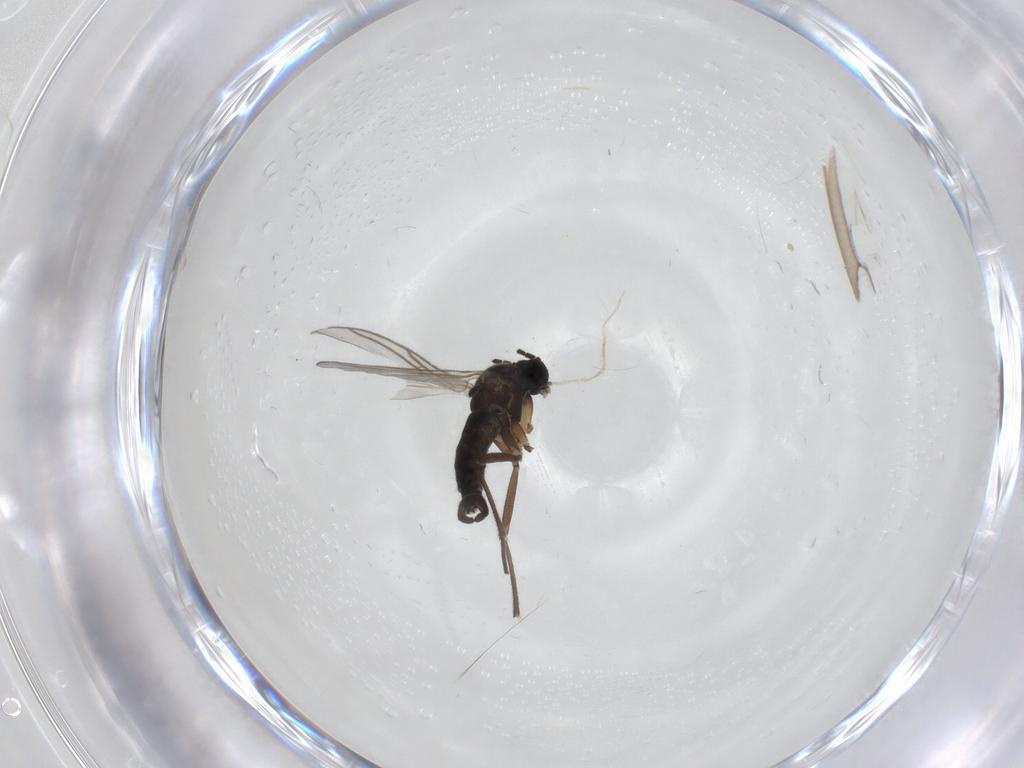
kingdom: Animalia
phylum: Arthropoda
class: Insecta
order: Diptera
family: Sciaridae
